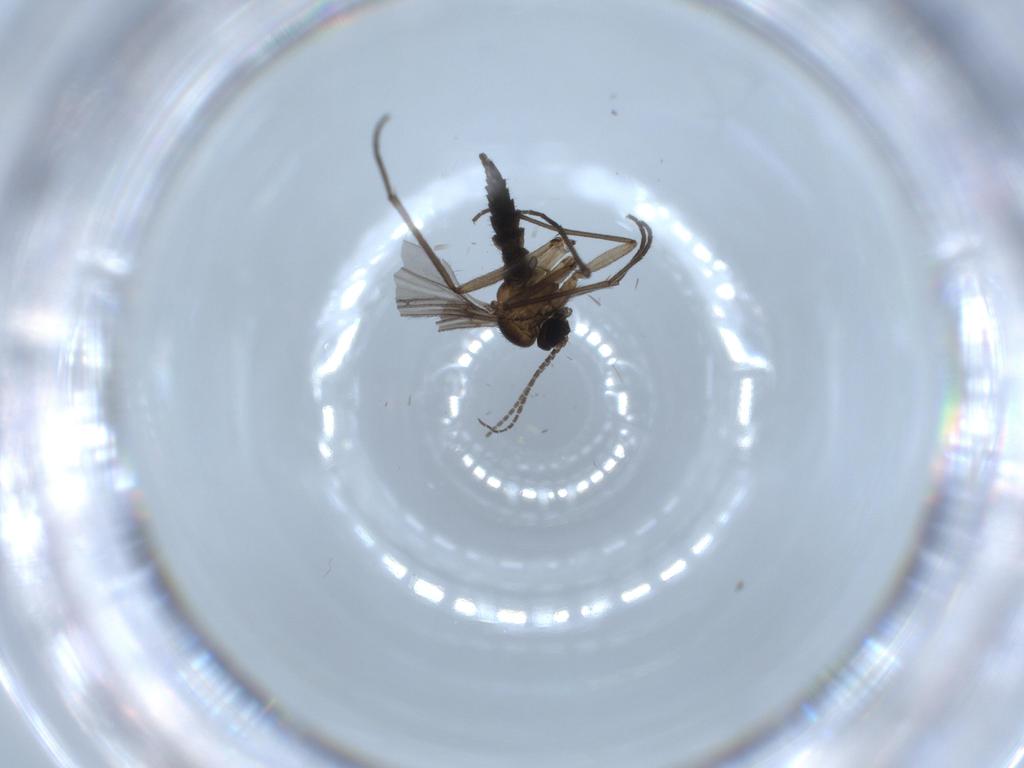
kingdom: Animalia
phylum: Arthropoda
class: Insecta
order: Diptera
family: Sciaridae
